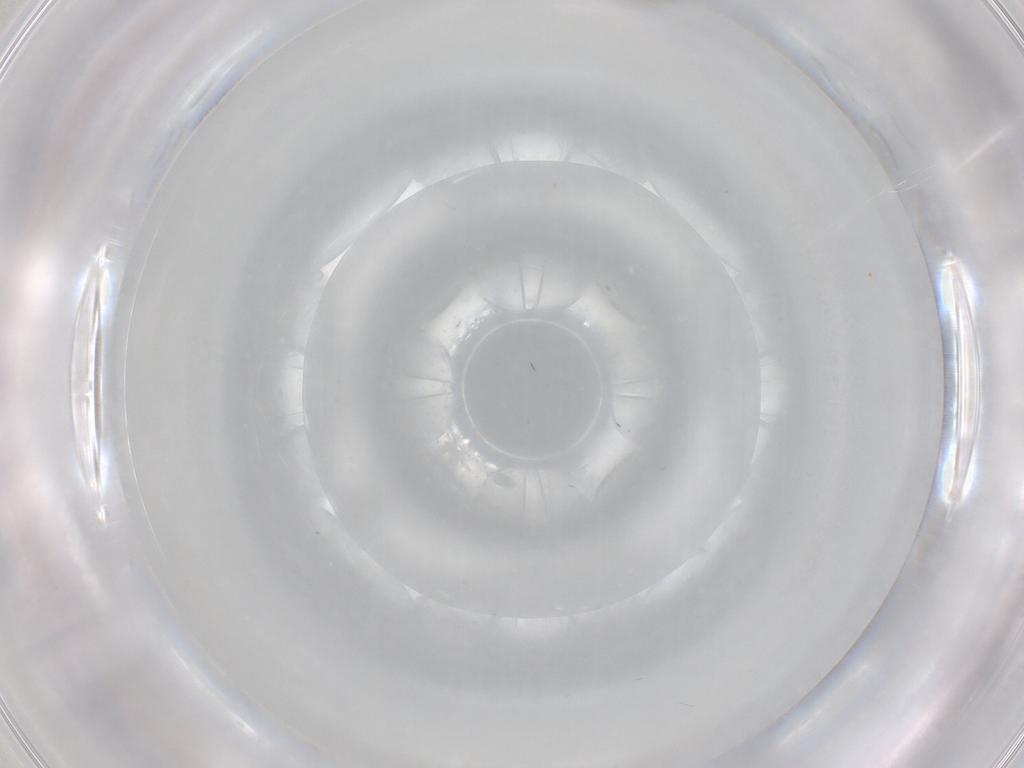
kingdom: Animalia
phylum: Arthropoda
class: Insecta
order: Diptera
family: Chironomidae
